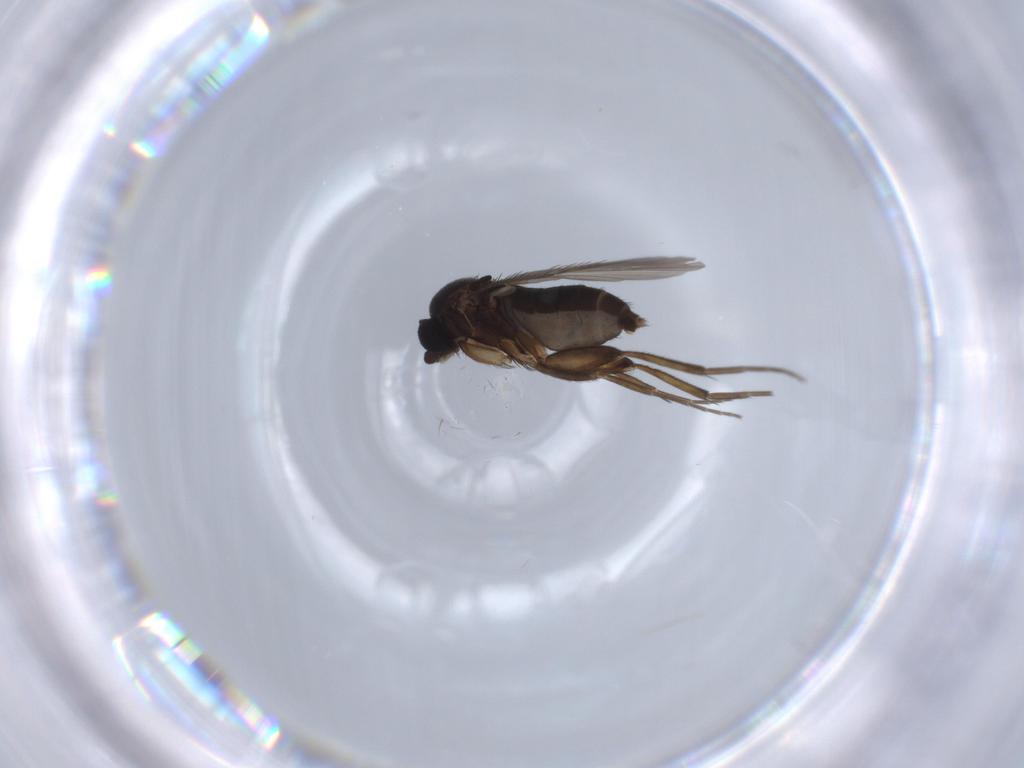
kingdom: Animalia
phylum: Arthropoda
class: Insecta
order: Diptera
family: Phoridae
